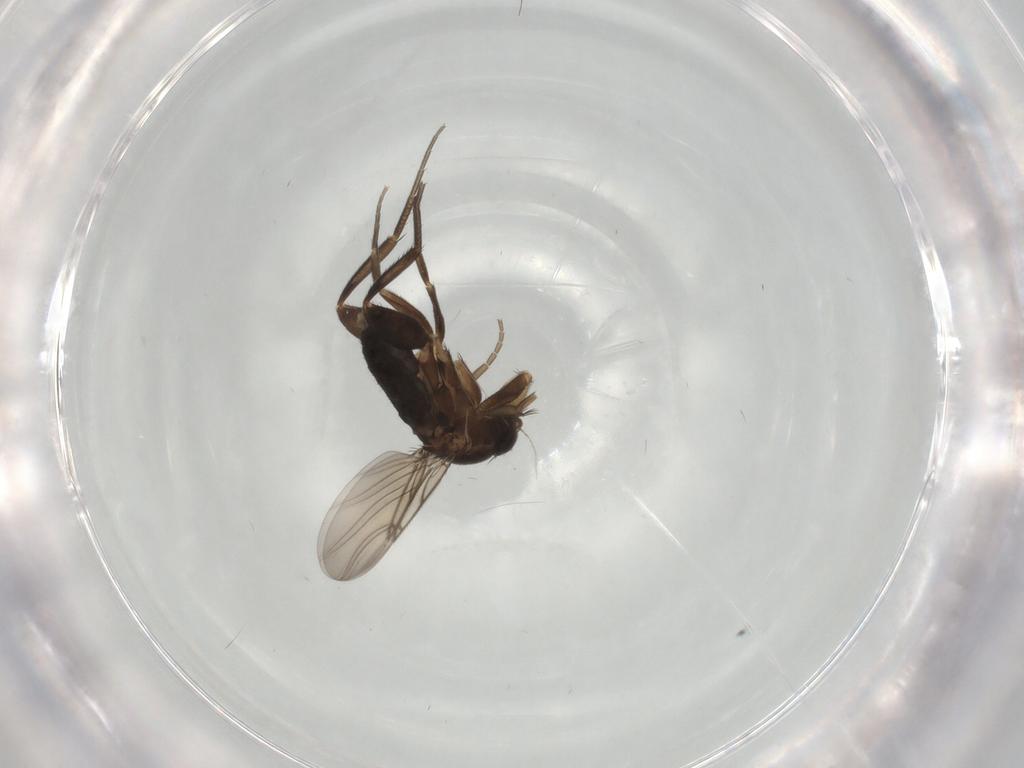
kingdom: Animalia
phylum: Arthropoda
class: Insecta
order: Diptera
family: Phoridae
